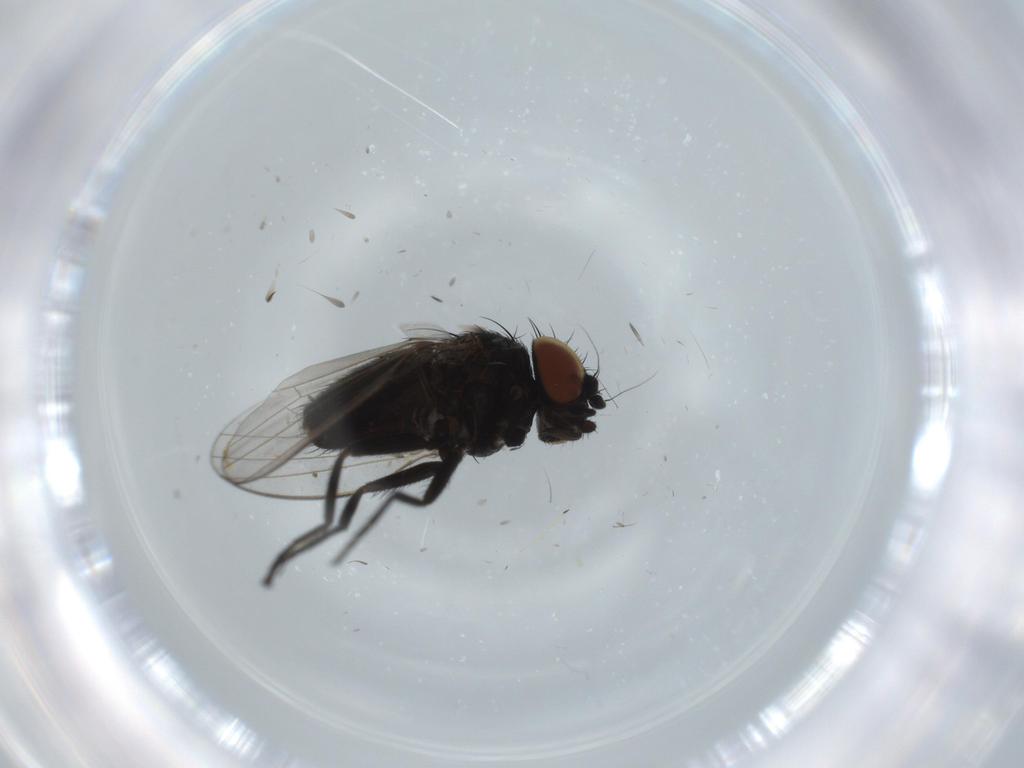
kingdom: Animalia
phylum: Arthropoda
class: Insecta
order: Diptera
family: Milichiidae
